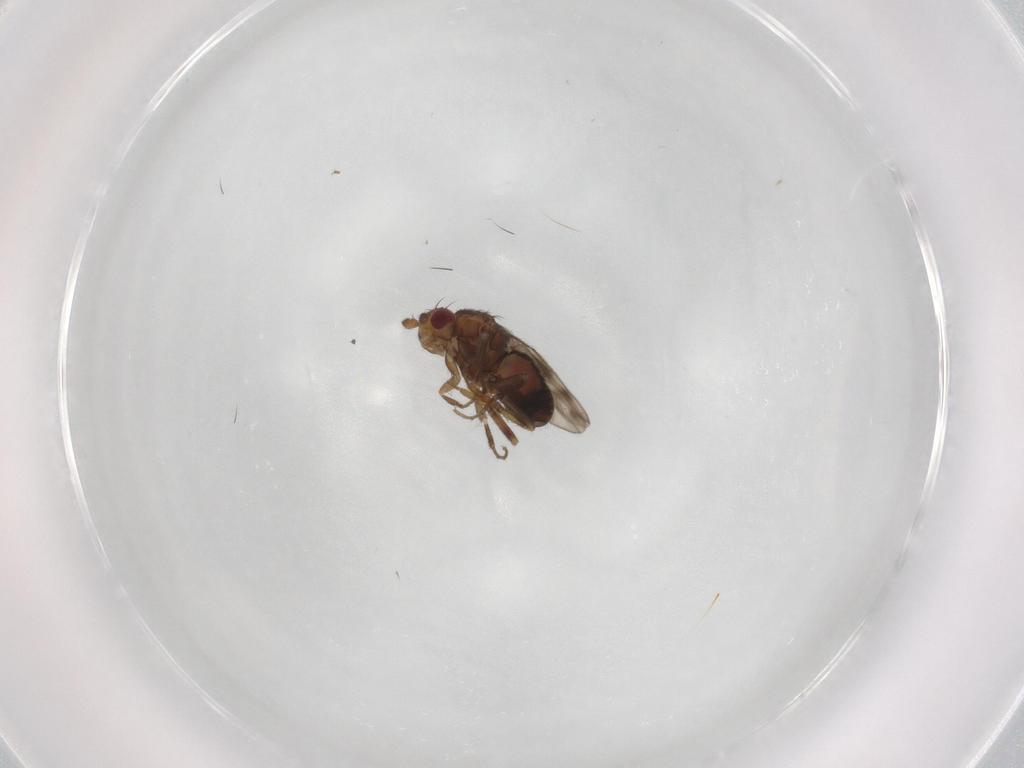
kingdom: Animalia
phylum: Arthropoda
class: Insecta
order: Diptera
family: Sphaeroceridae
